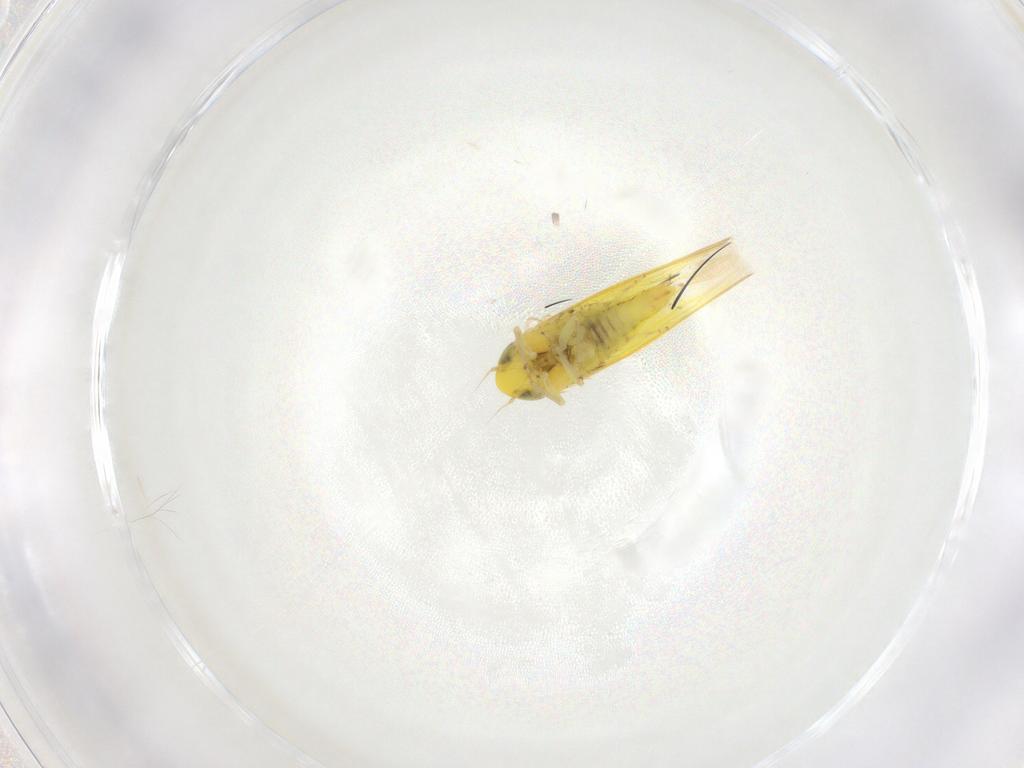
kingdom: Animalia
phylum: Arthropoda
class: Insecta
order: Hemiptera
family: Cicadellidae
